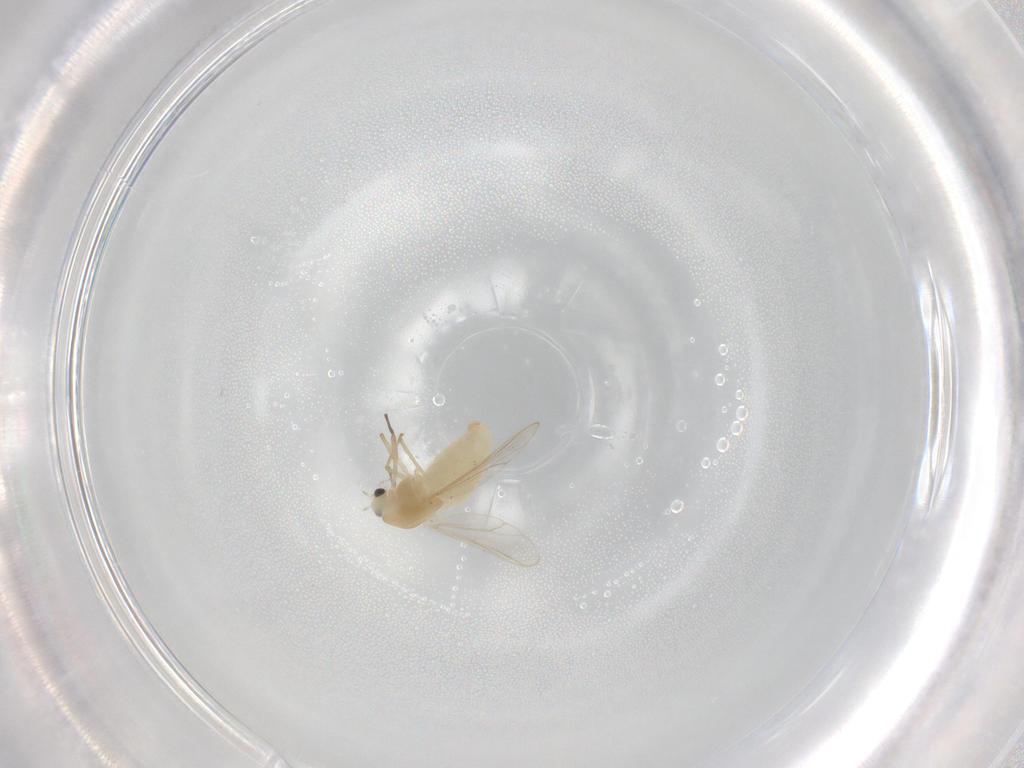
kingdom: Animalia
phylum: Arthropoda
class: Insecta
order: Diptera
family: Chironomidae
